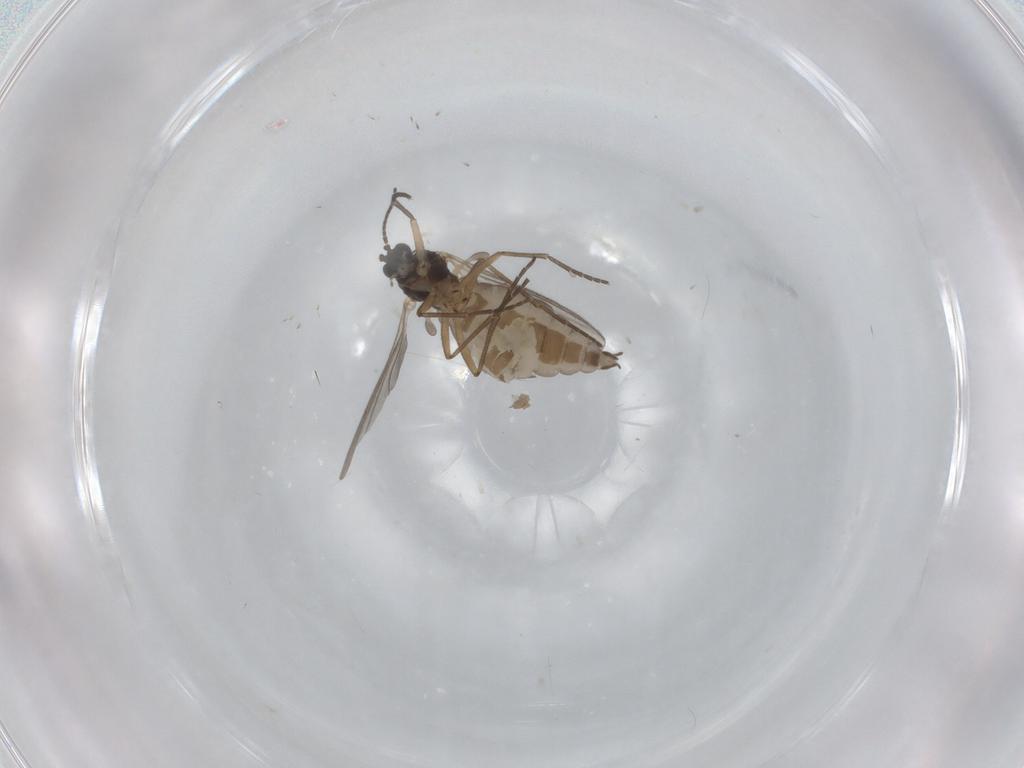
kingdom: Animalia
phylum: Arthropoda
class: Insecta
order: Diptera
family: Sciaridae
